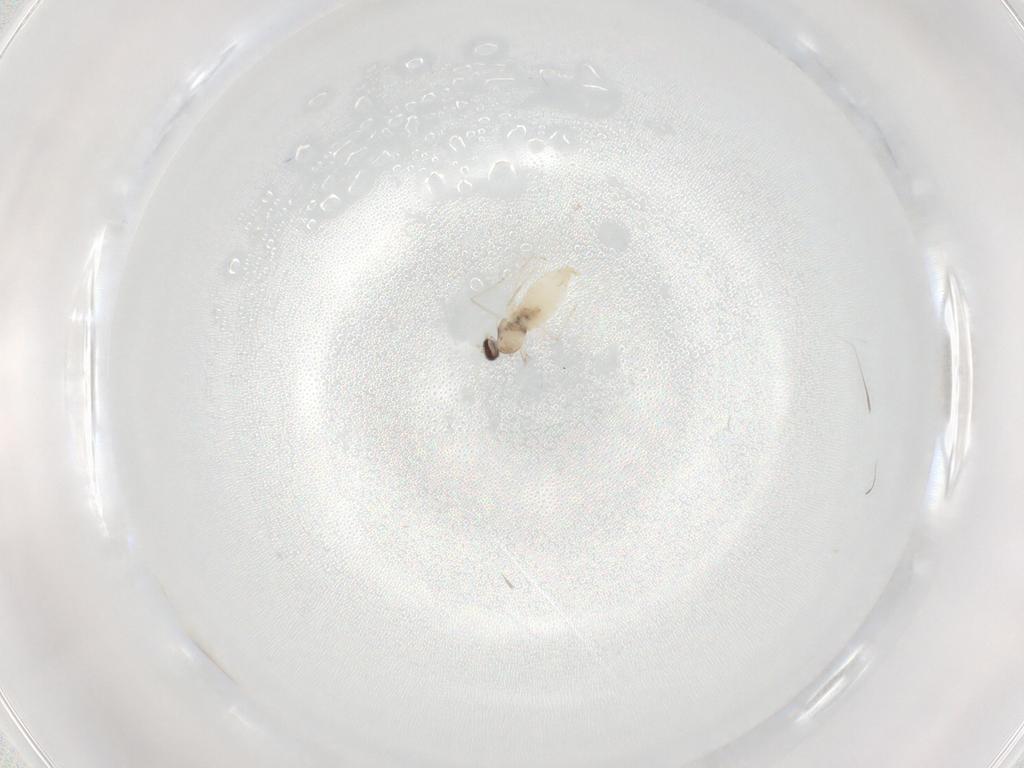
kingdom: Animalia
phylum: Arthropoda
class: Insecta
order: Diptera
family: Cecidomyiidae
